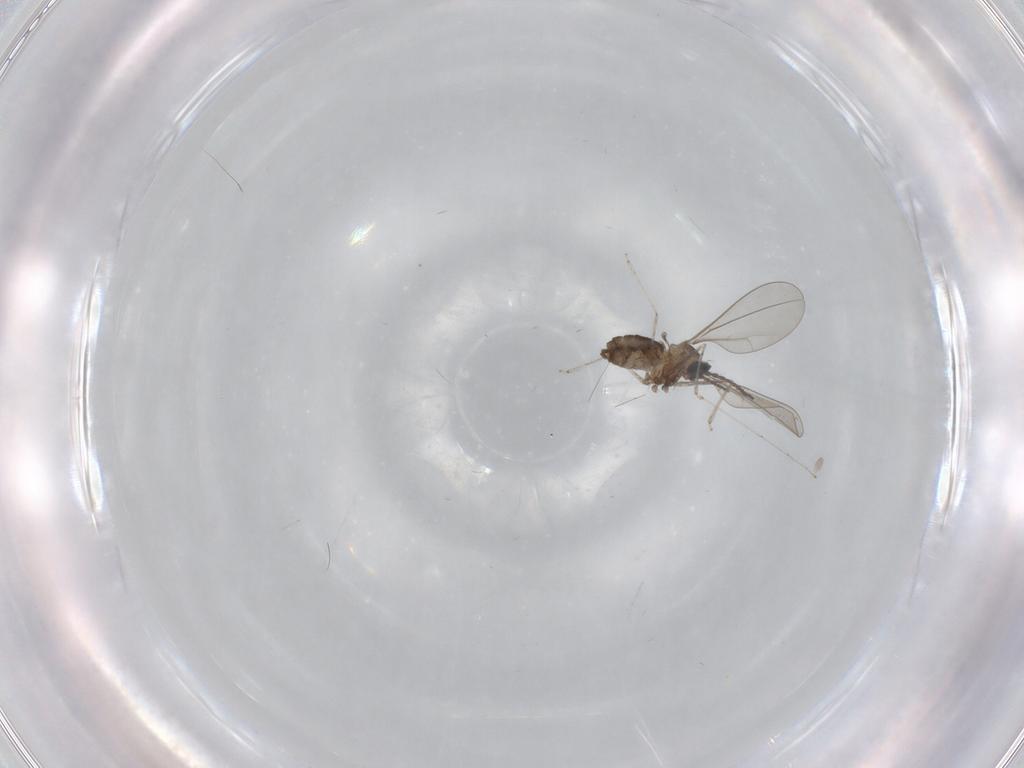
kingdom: Animalia
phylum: Arthropoda
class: Insecta
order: Diptera
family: Cecidomyiidae
